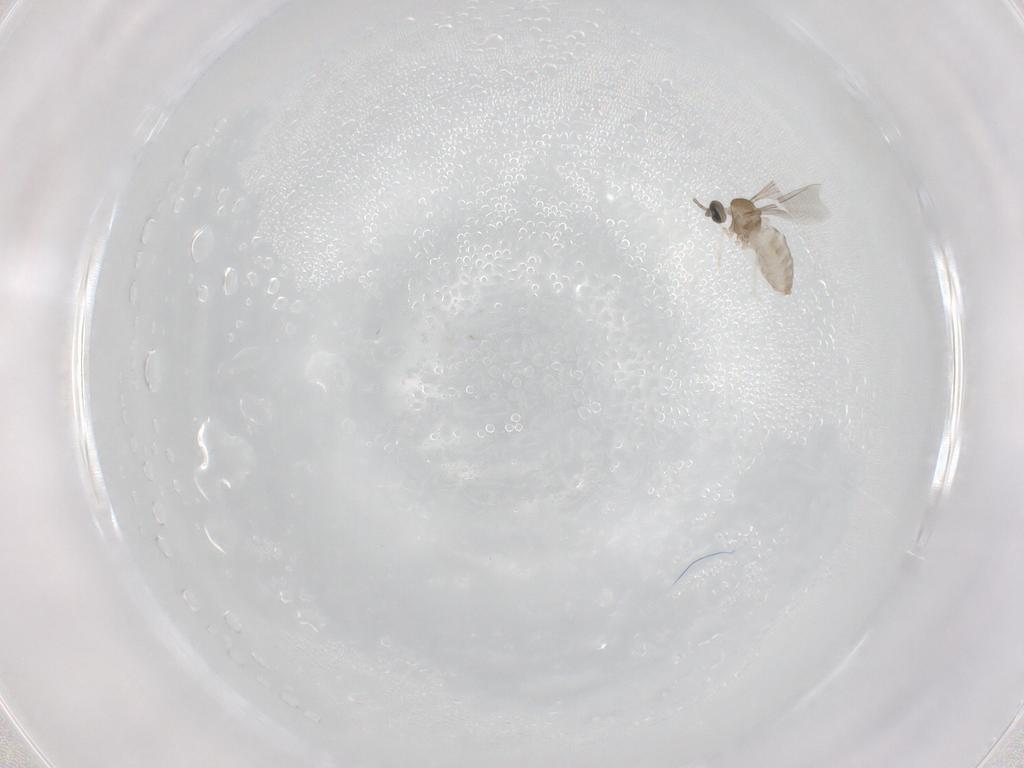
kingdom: Animalia
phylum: Arthropoda
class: Insecta
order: Diptera
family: Cecidomyiidae
